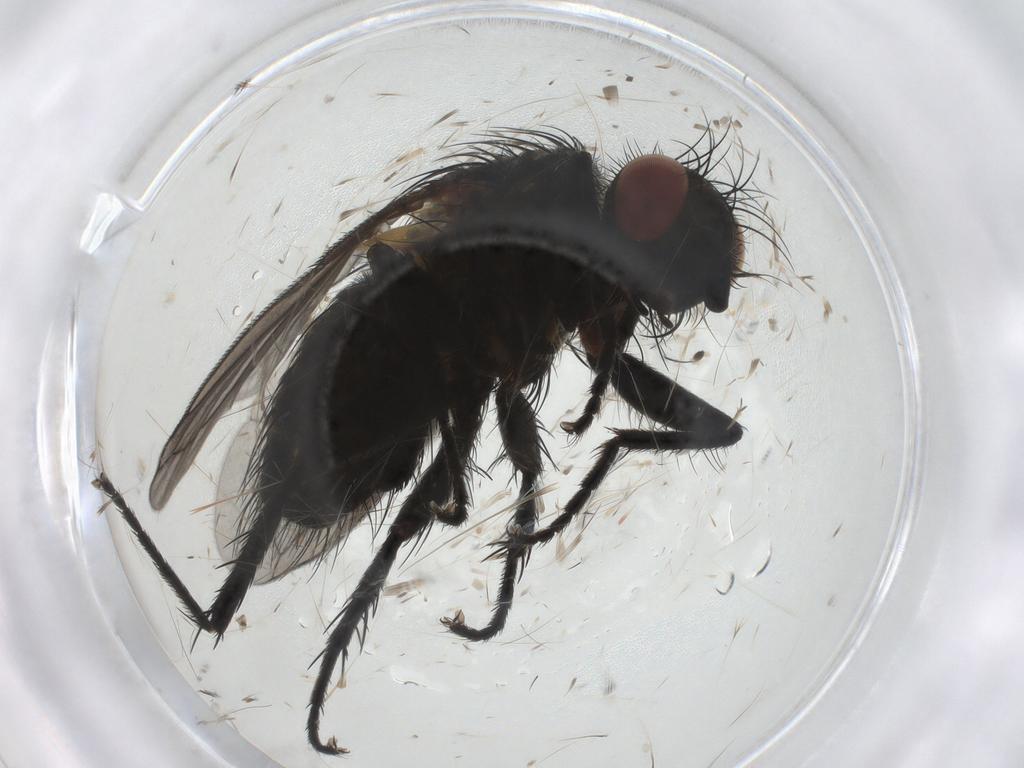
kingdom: Animalia
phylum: Arthropoda
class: Insecta
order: Diptera
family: Tachinidae
